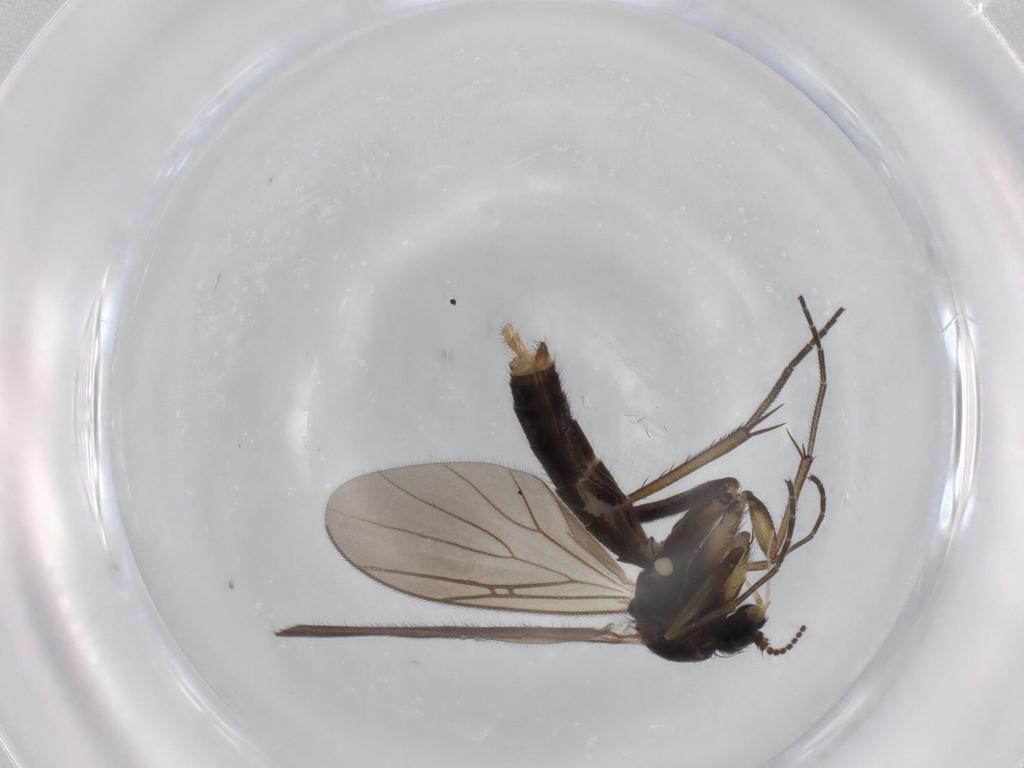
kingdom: Animalia
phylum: Arthropoda
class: Insecta
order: Diptera
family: Mycetophilidae
